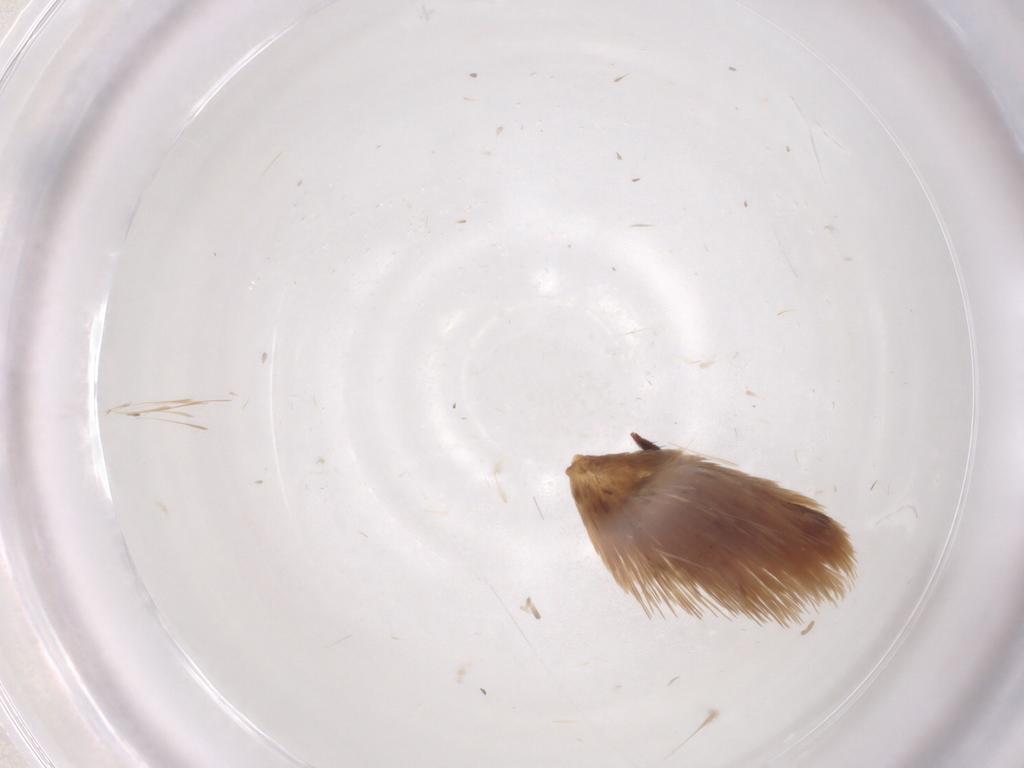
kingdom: Animalia
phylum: Arthropoda
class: Insecta
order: Lepidoptera
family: Eriocottidae
